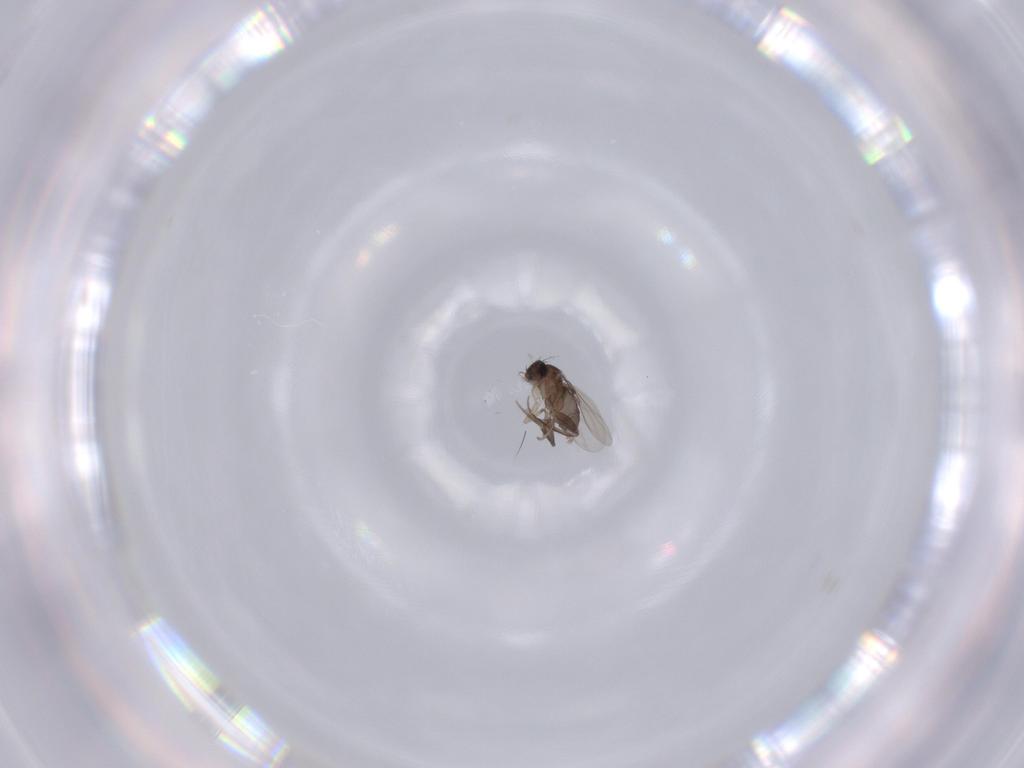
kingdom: Animalia
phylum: Arthropoda
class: Insecta
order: Diptera
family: Phoridae
